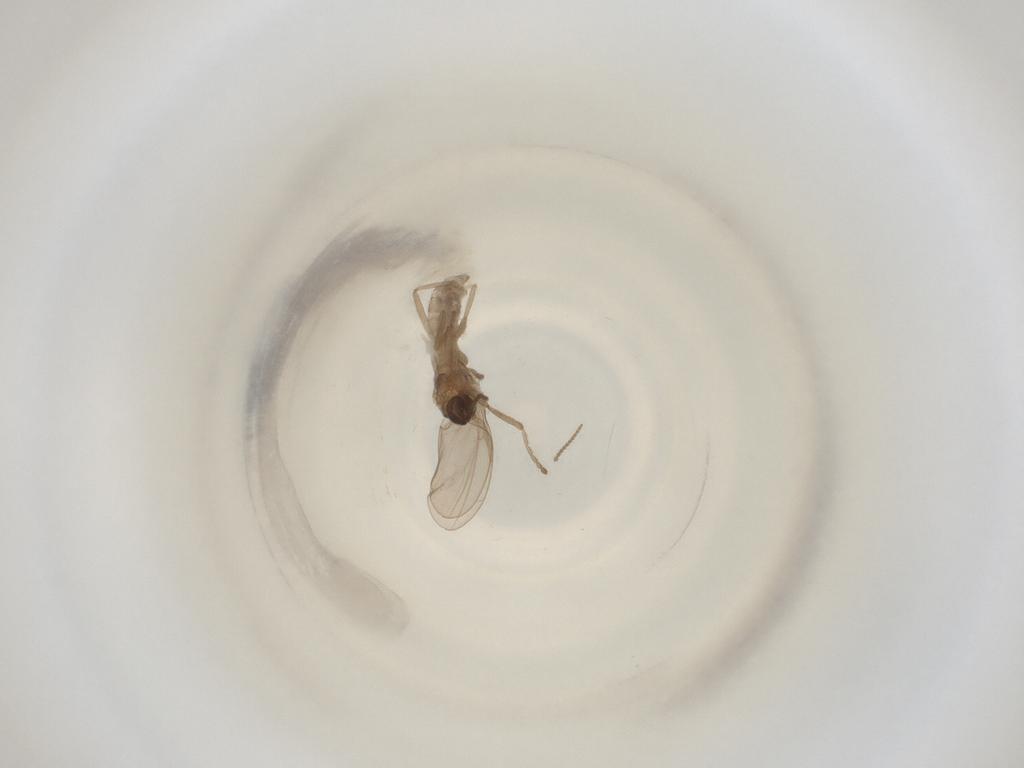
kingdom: Animalia
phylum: Arthropoda
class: Insecta
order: Diptera
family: Cecidomyiidae
